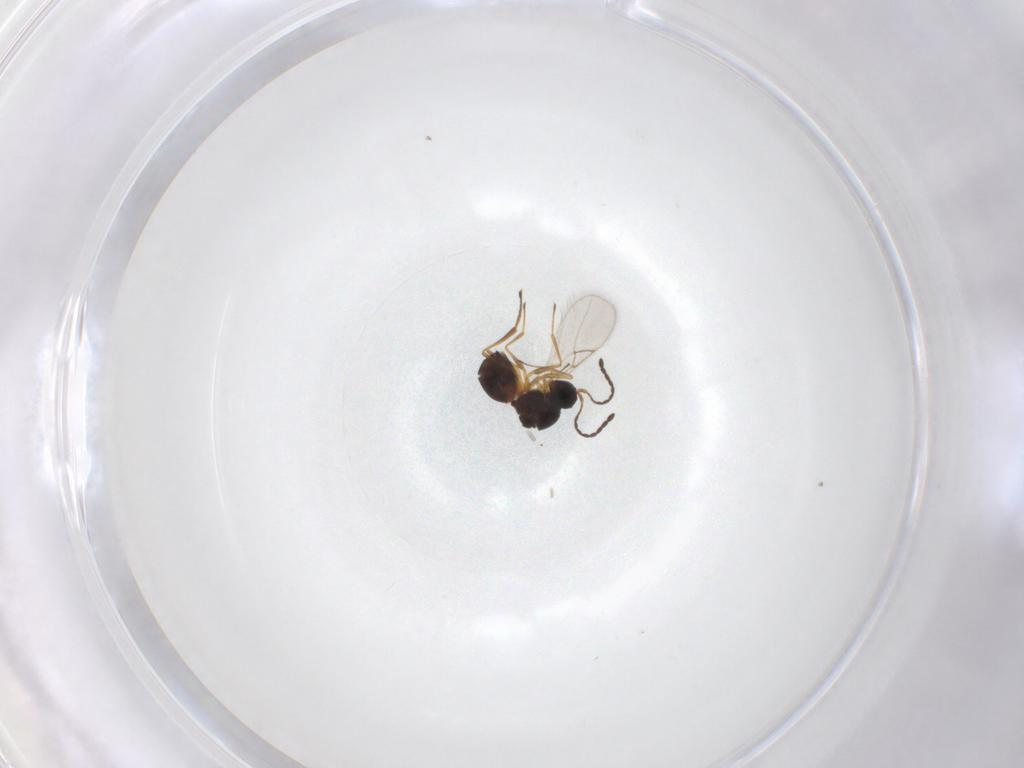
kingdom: Animalia
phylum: Arthropoda
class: Insecta
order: Hymenoptera
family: Figitidae
